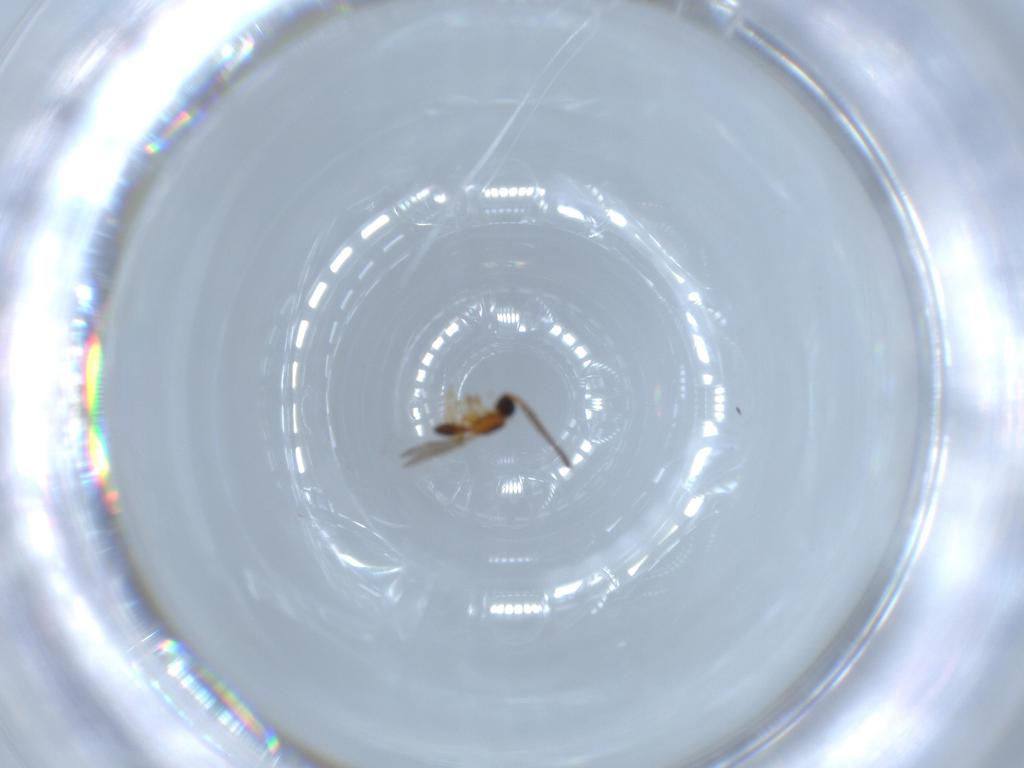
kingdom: Animalia
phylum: Arthropoda
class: Insecta
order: Hymenoptera
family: Diapriidae
